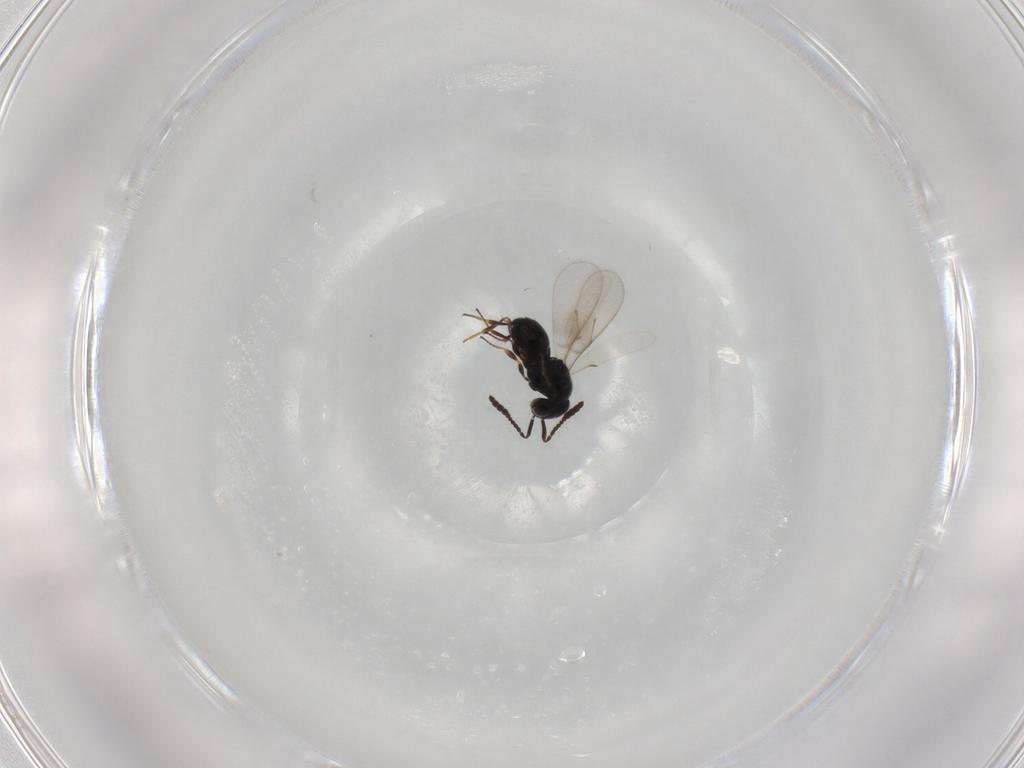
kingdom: Animalia
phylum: Arthropoda
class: Insecta
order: Hymenoptera
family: Scelionidae
